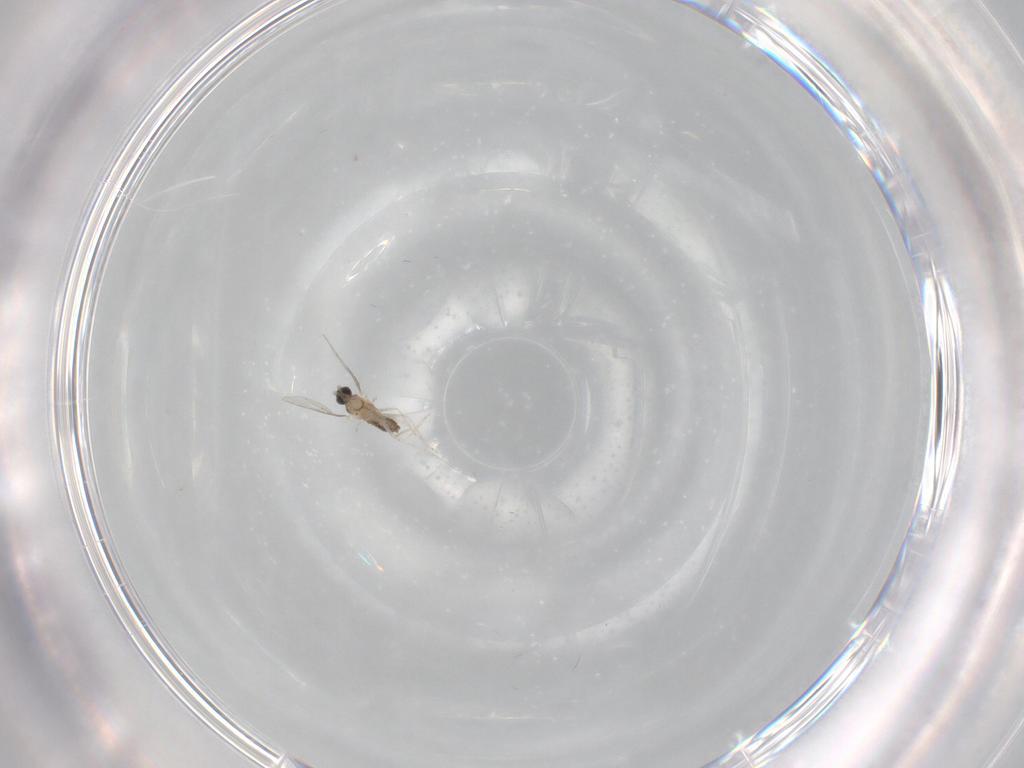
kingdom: Animalia
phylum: Arthropoda
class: Insecta
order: Diptera
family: Cecidomyiidae
